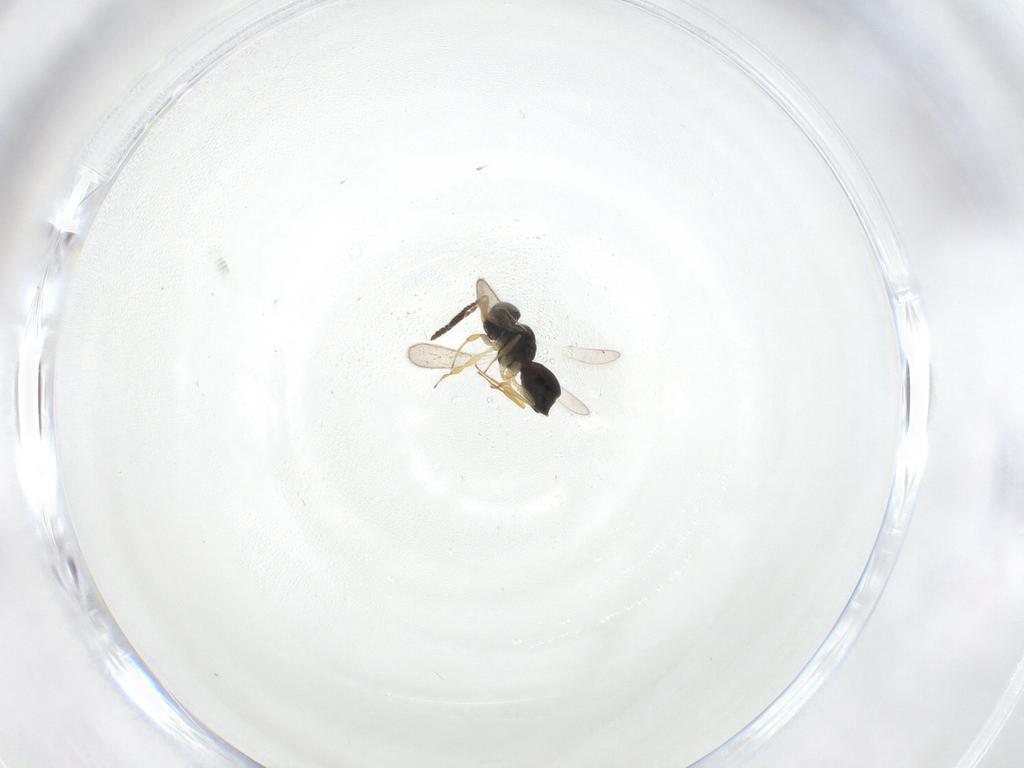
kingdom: Animalia
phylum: Arthropoda
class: Insecta
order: Hymenoptera
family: Scelionidae
